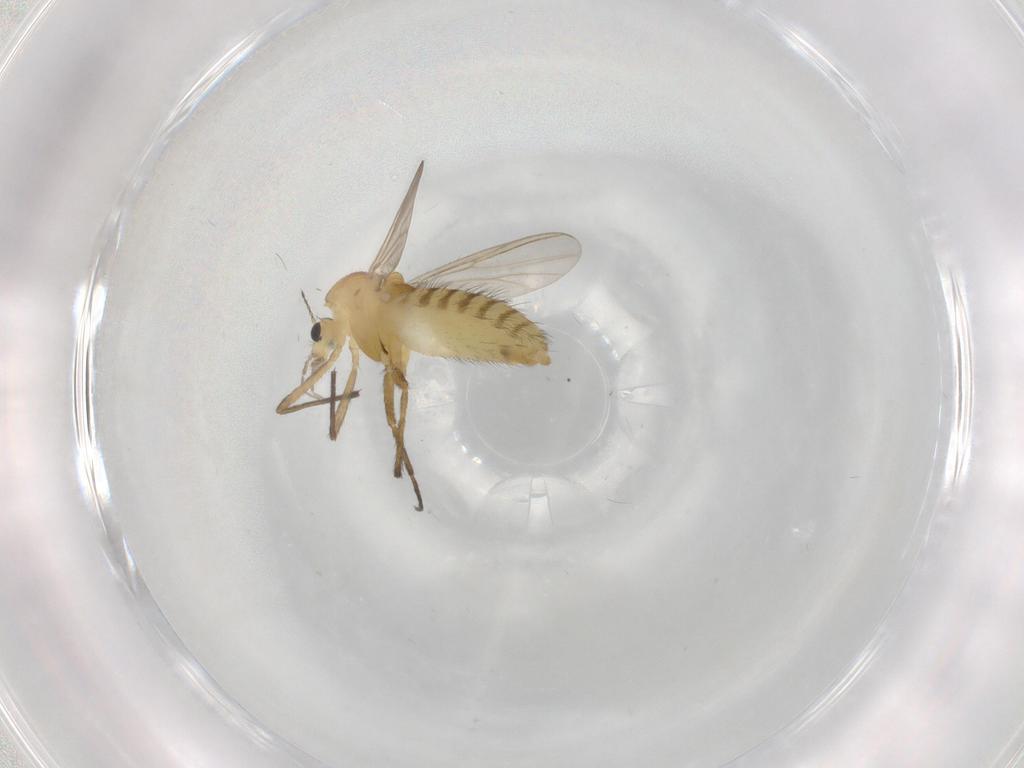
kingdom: Animalia
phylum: Arthropoda
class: Insecta
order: Diptera
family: Chironomidae
